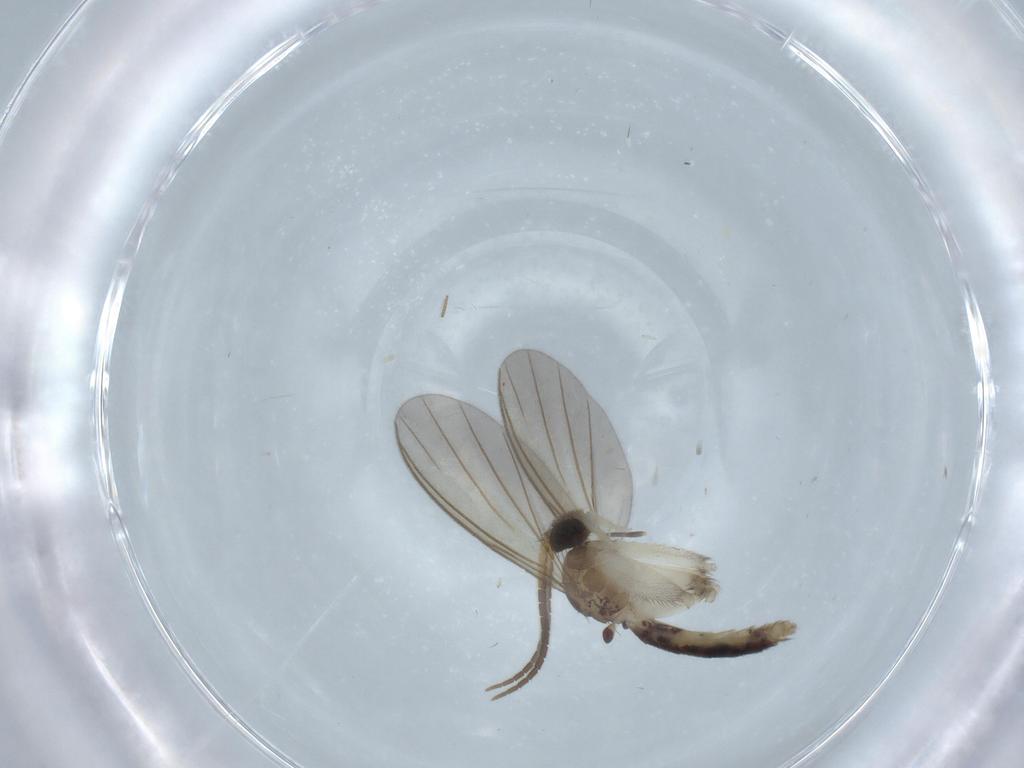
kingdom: Animalia
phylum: Arthropoda
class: Insecta
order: Diptera
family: Mycetophilidae
